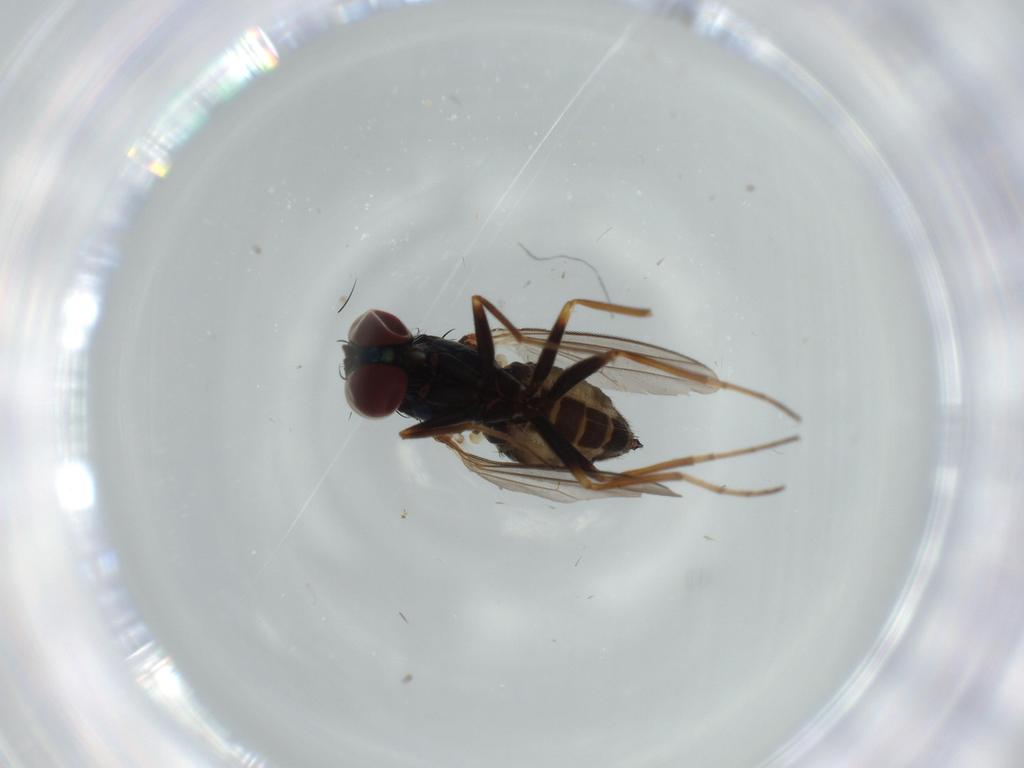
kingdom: Animalia
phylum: Arthropoda
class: Insecta
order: Diptera
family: Dolichopodidae
